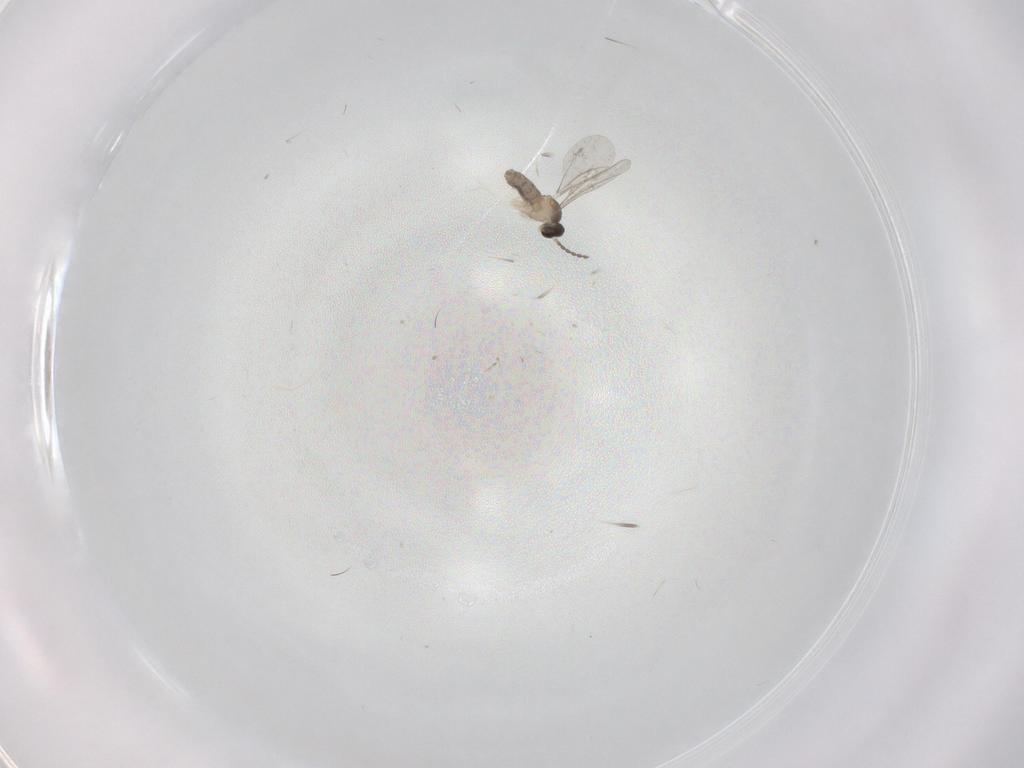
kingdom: Animalia
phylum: Arthropoda
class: Insecta
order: Diptera
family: Cecidomyiidae
